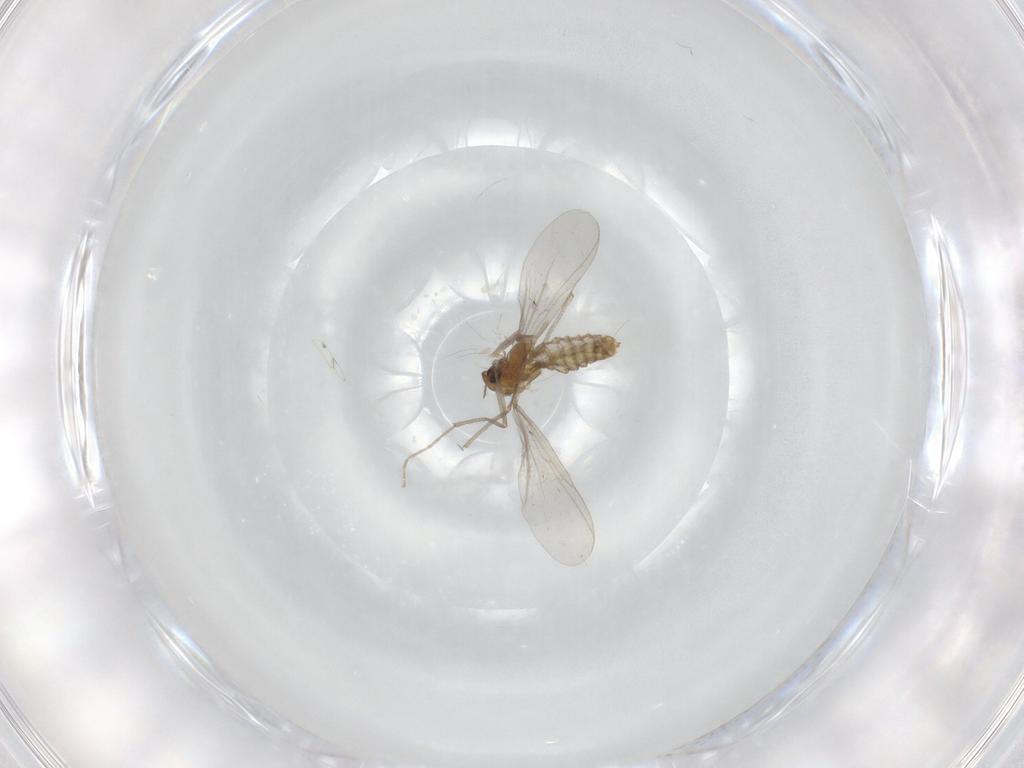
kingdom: Animalia
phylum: Arthropoda
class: Insecta
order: Diptera
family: Chironomidae
